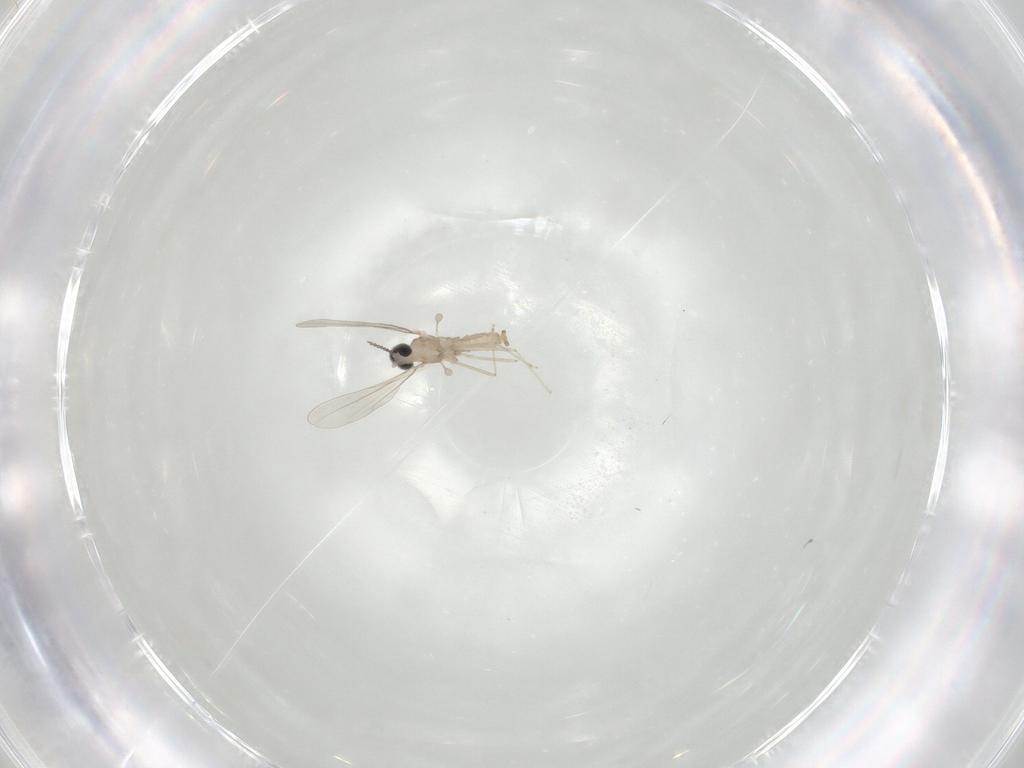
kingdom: Animalia
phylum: Arthropoda
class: Insecta
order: Diptera
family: Cecidomyiidae
